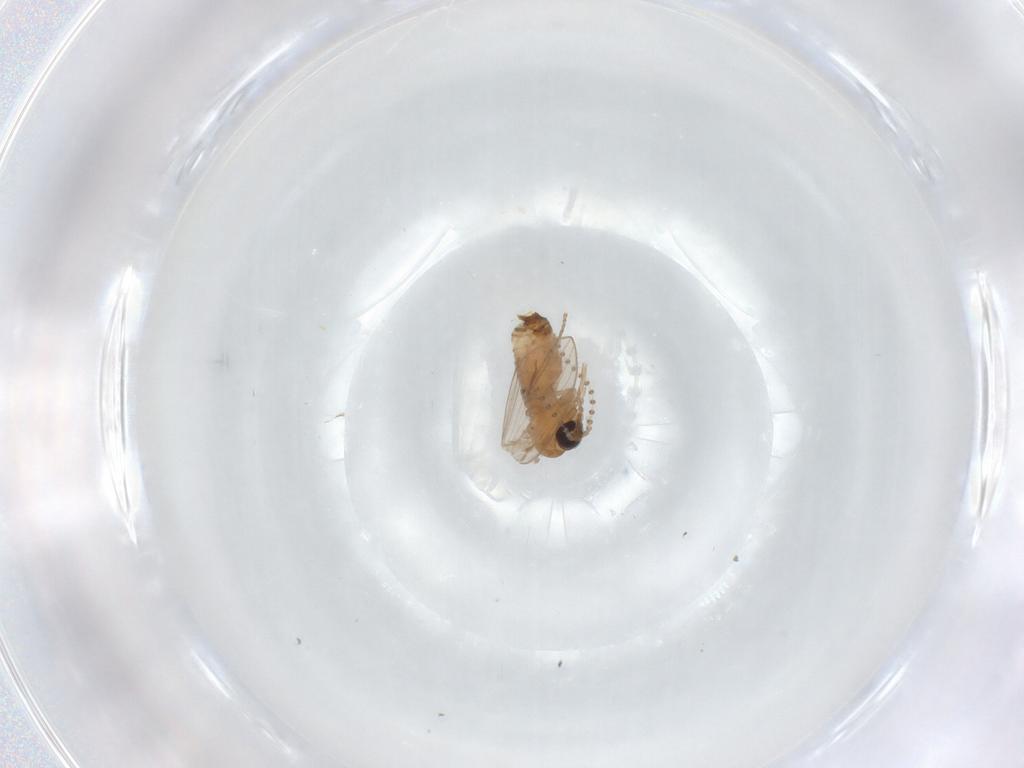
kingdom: Animalia
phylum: Arthropoda
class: Insecta
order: Diptera
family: Psychodidae
